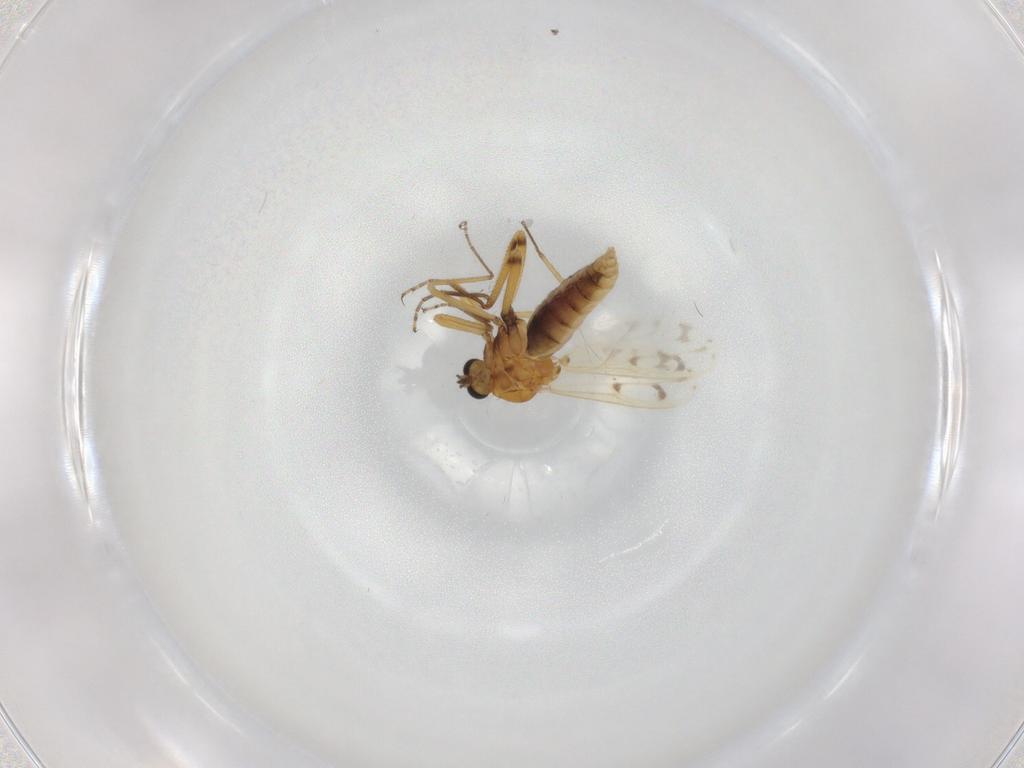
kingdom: Animalia
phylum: Arthropoda
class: Insecta
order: Diptera
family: Ceratopogonidae
